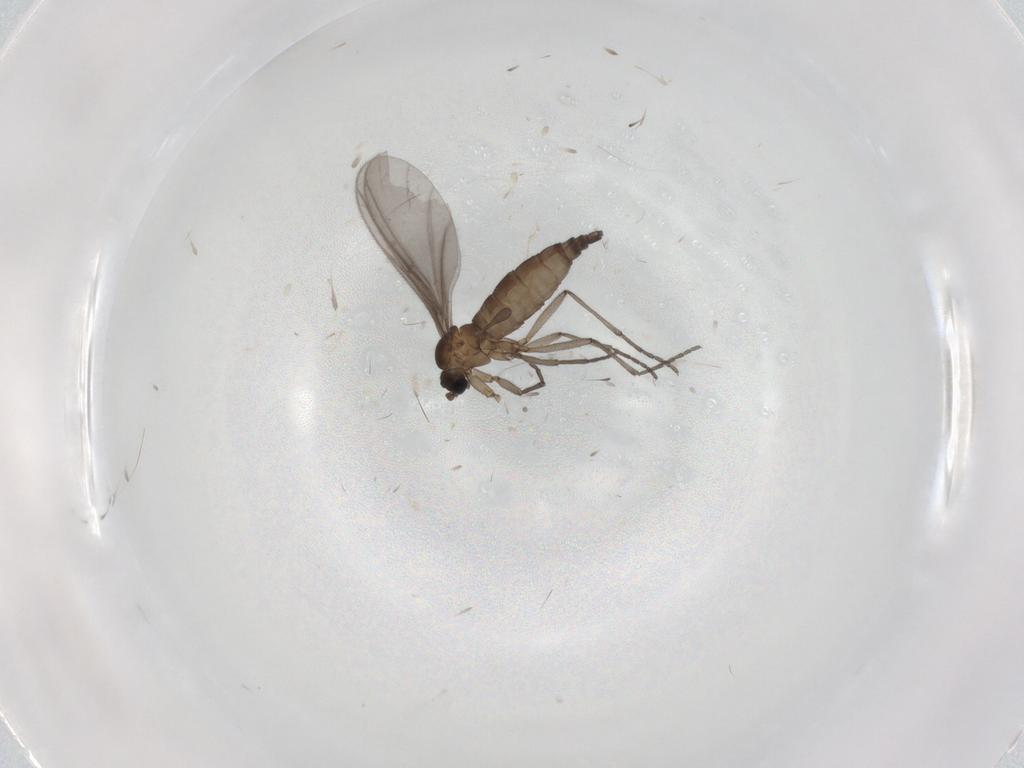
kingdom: Animalia
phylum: Arthropoda
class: Insecta
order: Diptera
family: Sciaridae
